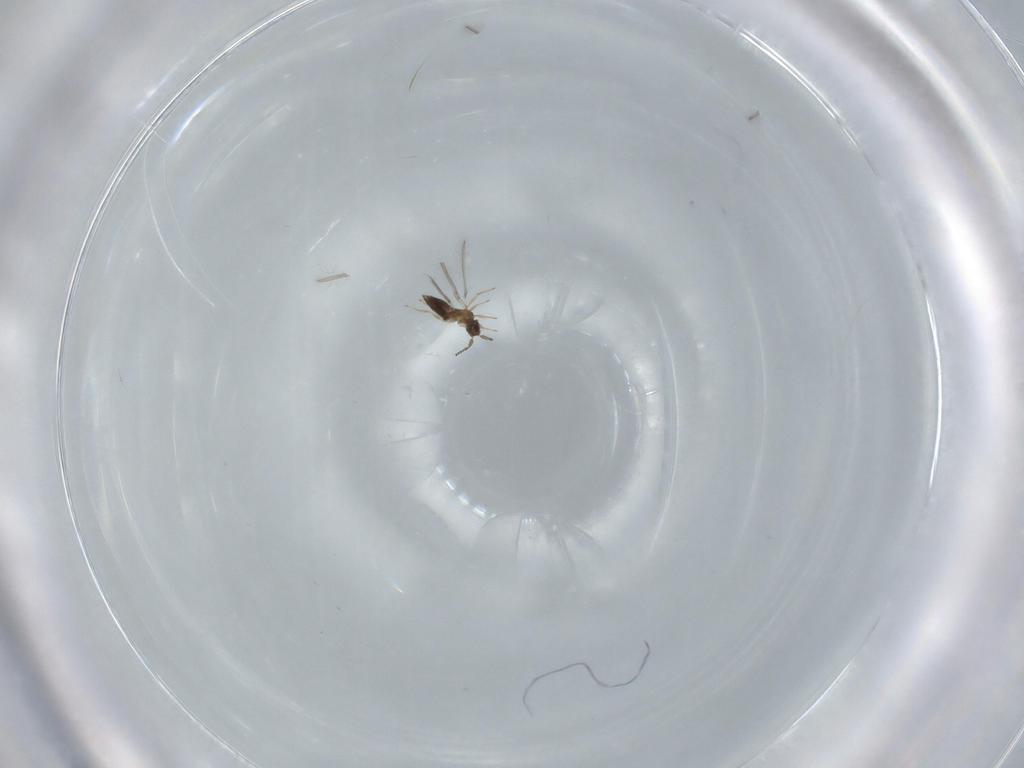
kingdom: Animalia
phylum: Arthropoda
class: Insecta
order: Hymenoptera
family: Mymaridae
